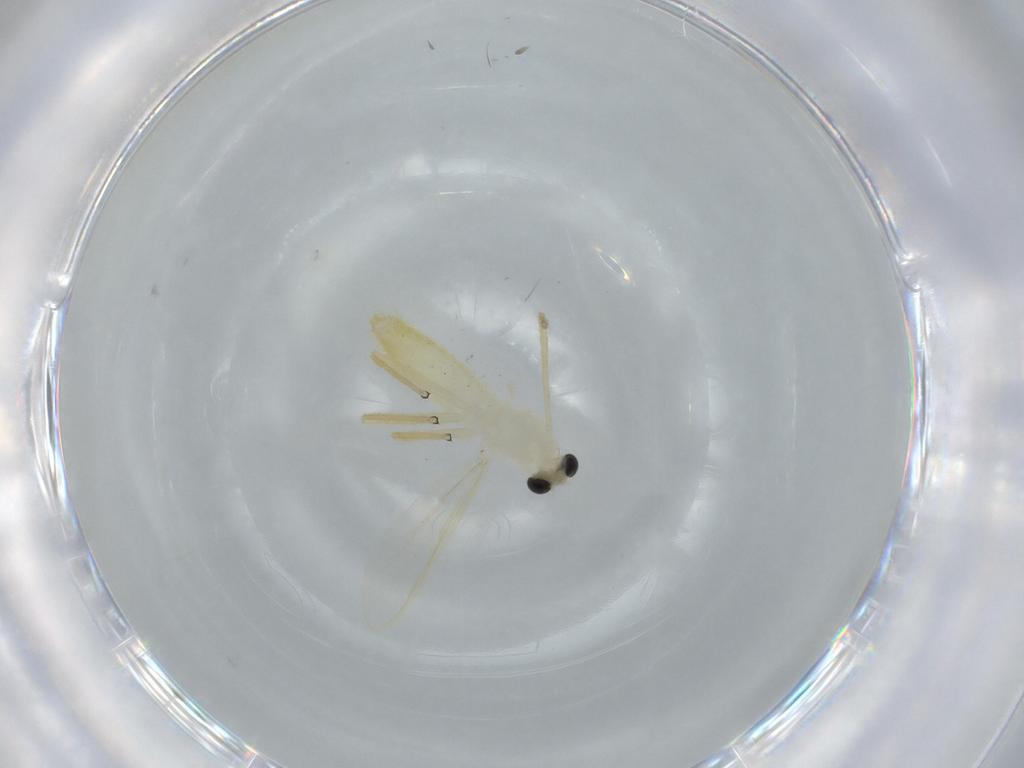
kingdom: Animalia
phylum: Arthropoda
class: Insecta
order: Diptera
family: Chironomidae
